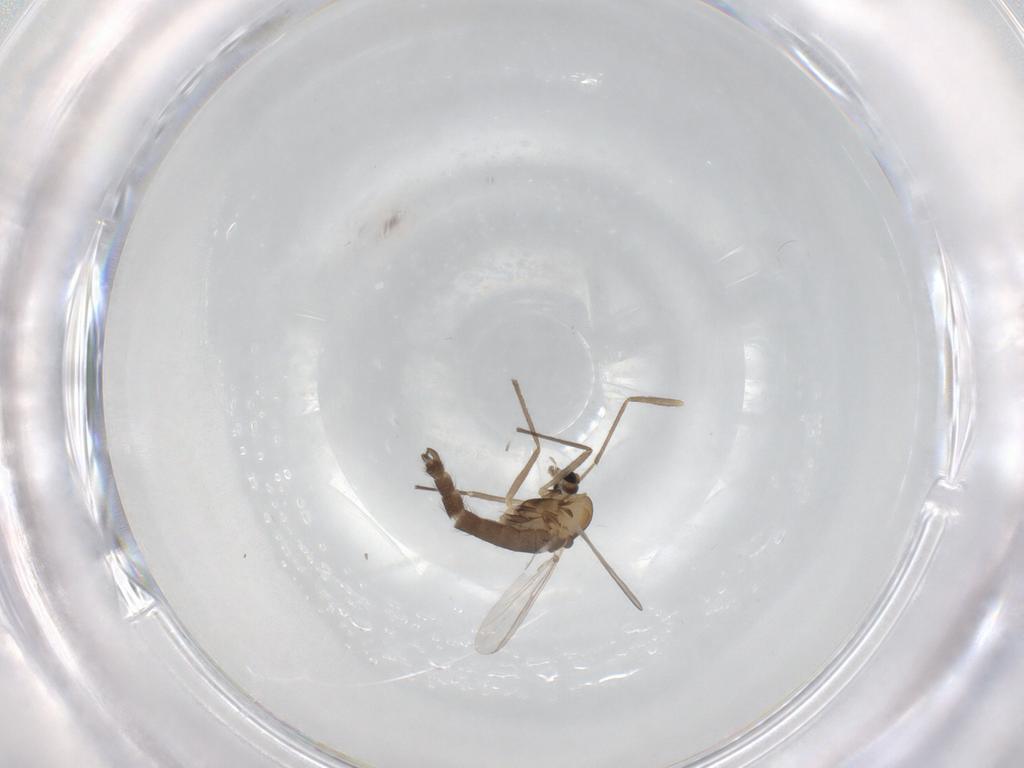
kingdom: Animalia
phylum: Arthropoda
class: Insecta
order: Diptera
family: Chironomidae
